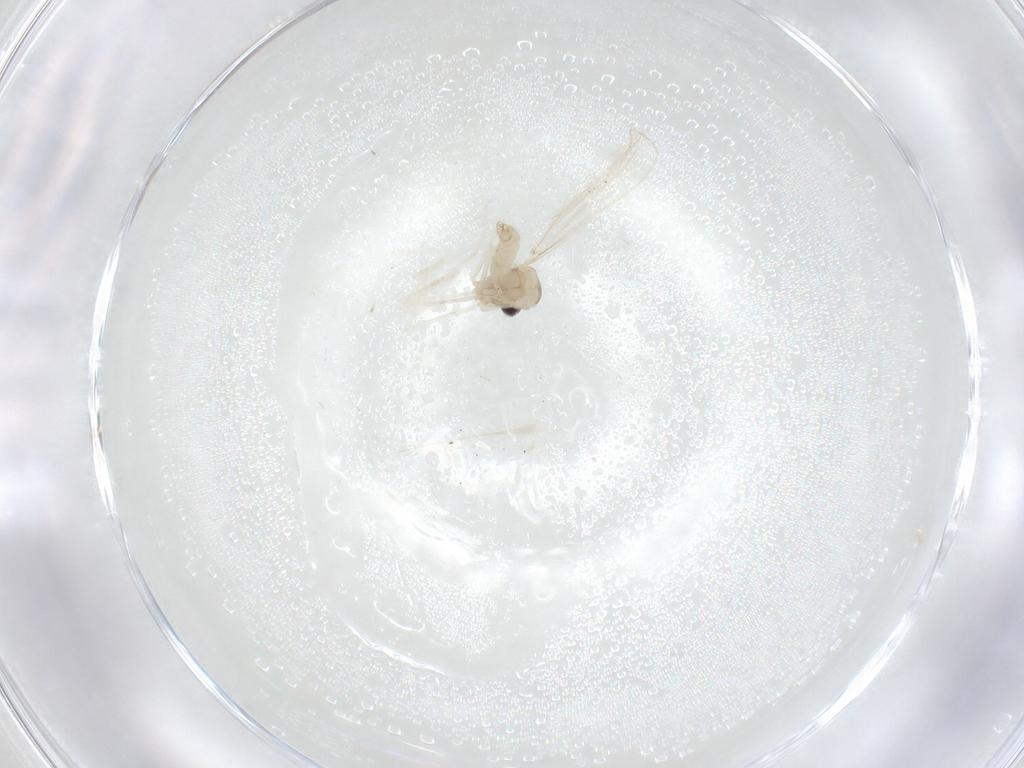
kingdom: Animalia
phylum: Arthropoda
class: Insecta
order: Diptera
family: Cecidomyiidae
